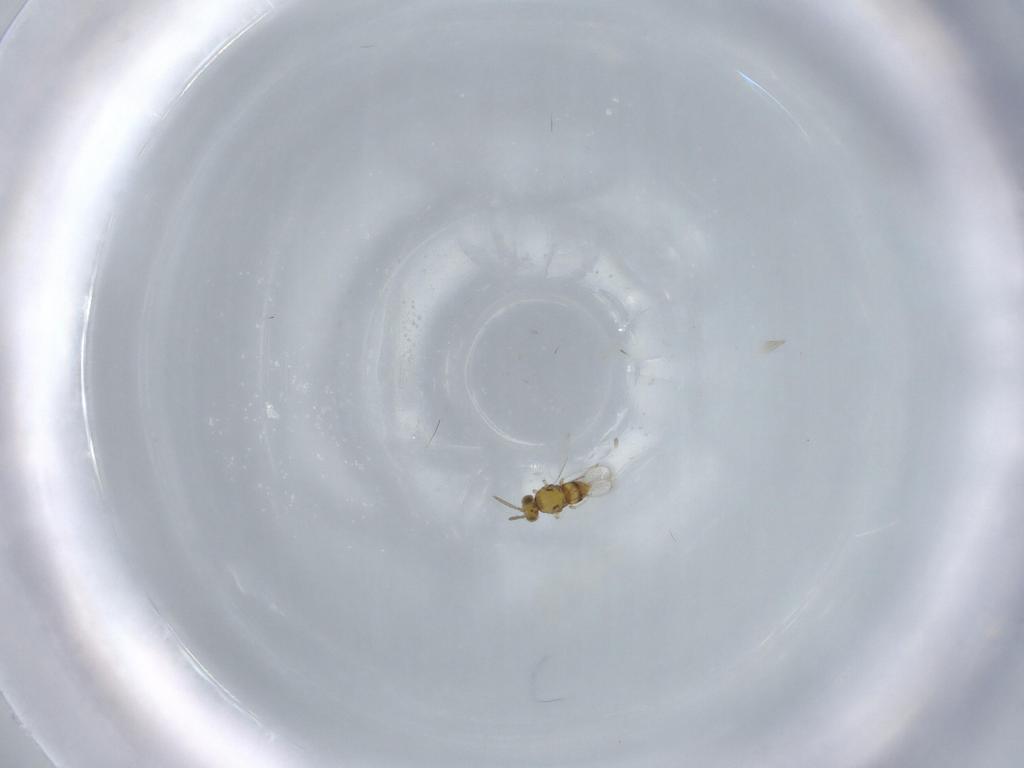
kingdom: Animalia
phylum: Arthropoda
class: Insecta
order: Hymenoptera
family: Aphelinidae
